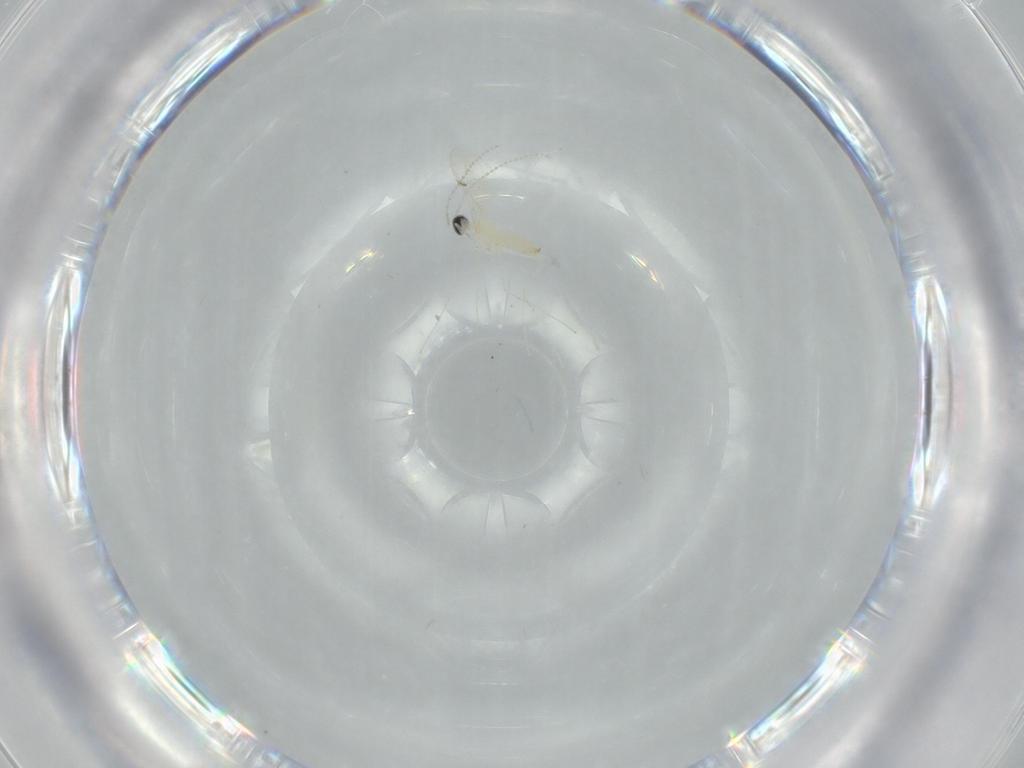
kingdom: Animalia
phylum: Arthropoda
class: Insecta
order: Diptera
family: Cecidomyiidae
